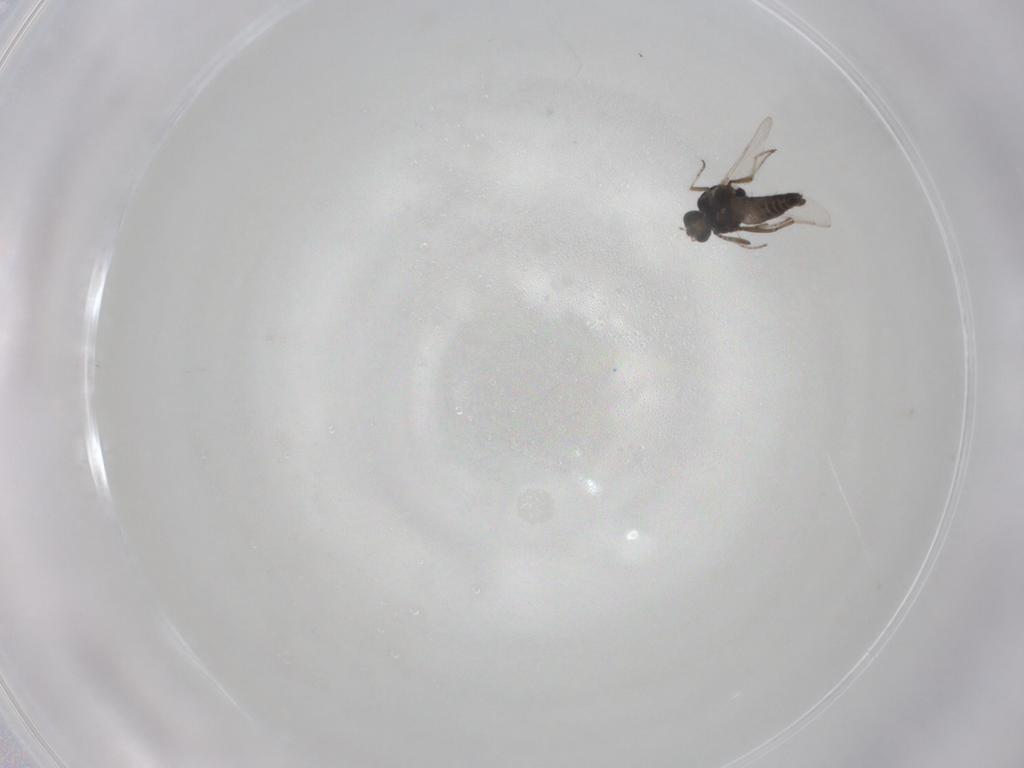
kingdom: Animalia
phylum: Arthropoda
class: Insecta
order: Diptera
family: Ceratopogonidae
